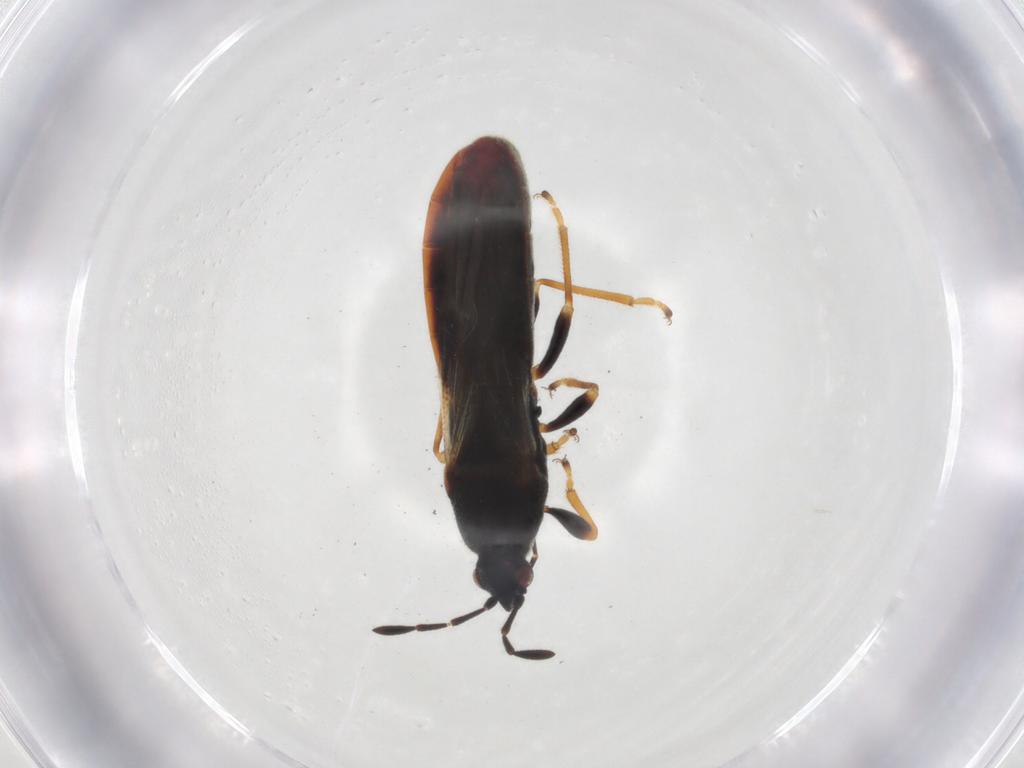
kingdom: Animalia
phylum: Arthropoda
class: Insecta
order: Hemiptera
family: Blissidae
